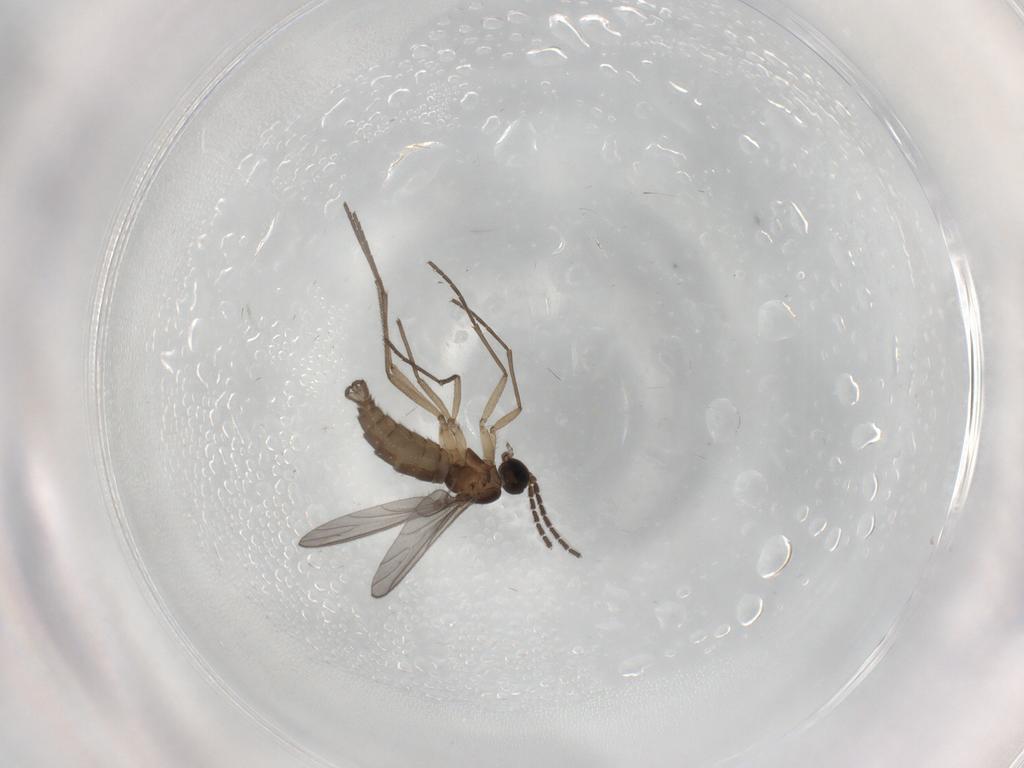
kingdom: Animalia
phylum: Arthropoda
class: Insecta
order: Diptera
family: Sciaridae
